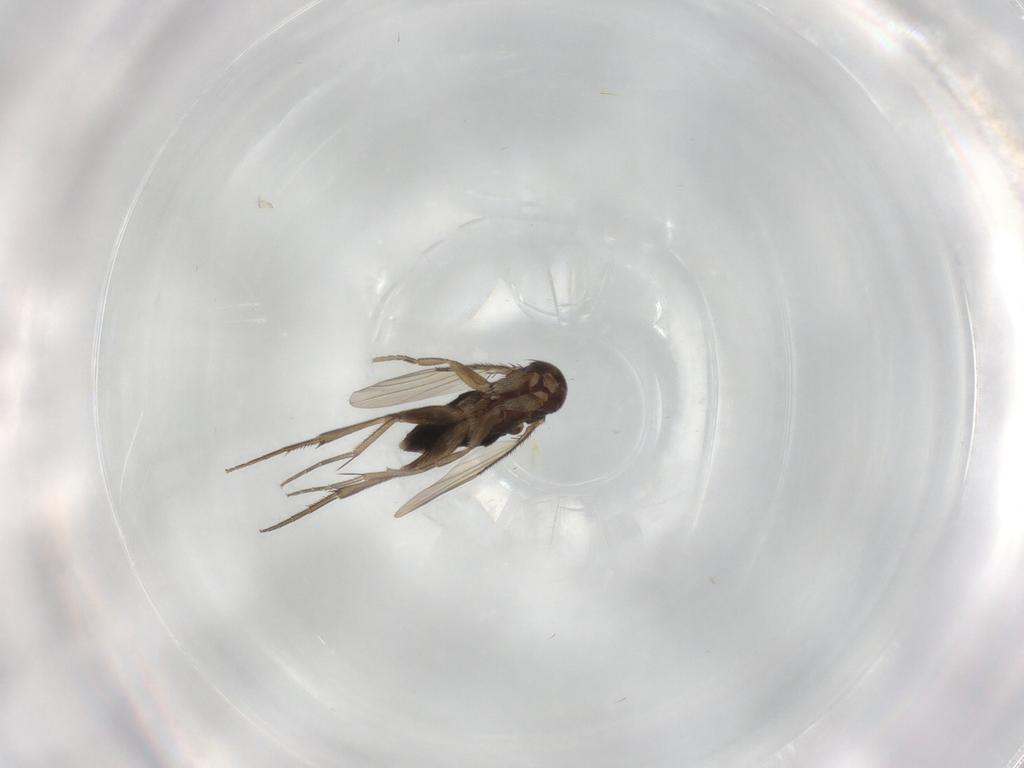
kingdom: Animalia
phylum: Arthropoda
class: Insecta
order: Diptera
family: Phoridae
